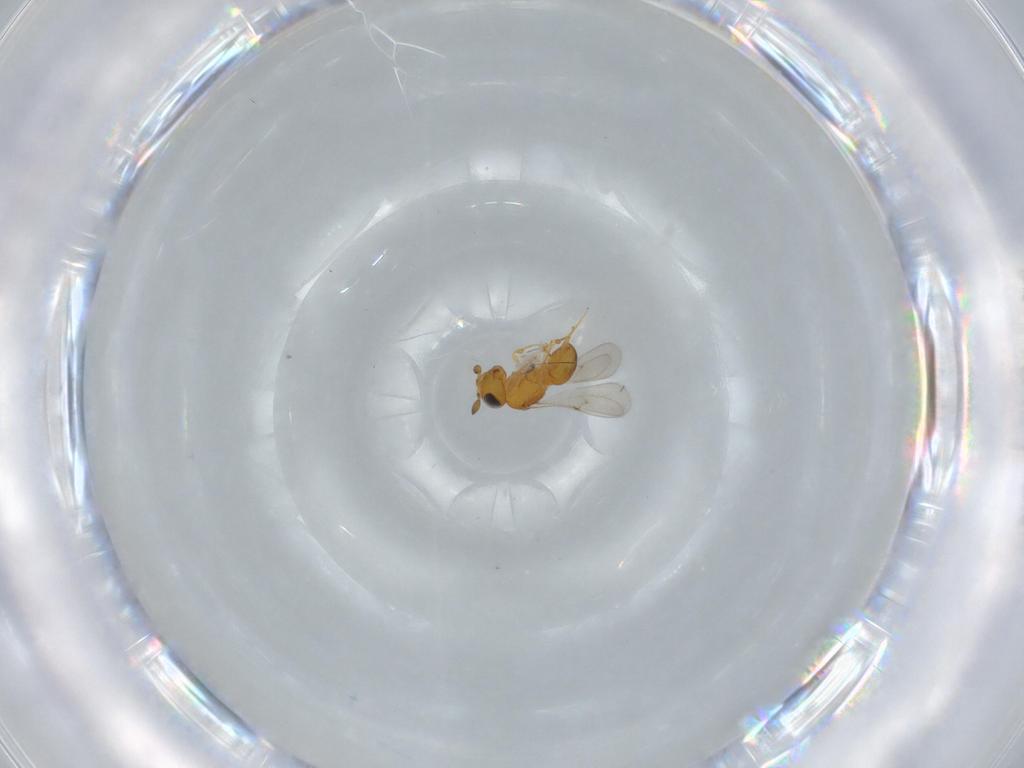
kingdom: Animalia
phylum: Arthropoda
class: Insecta
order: Hymenoptera
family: Scelionidae
